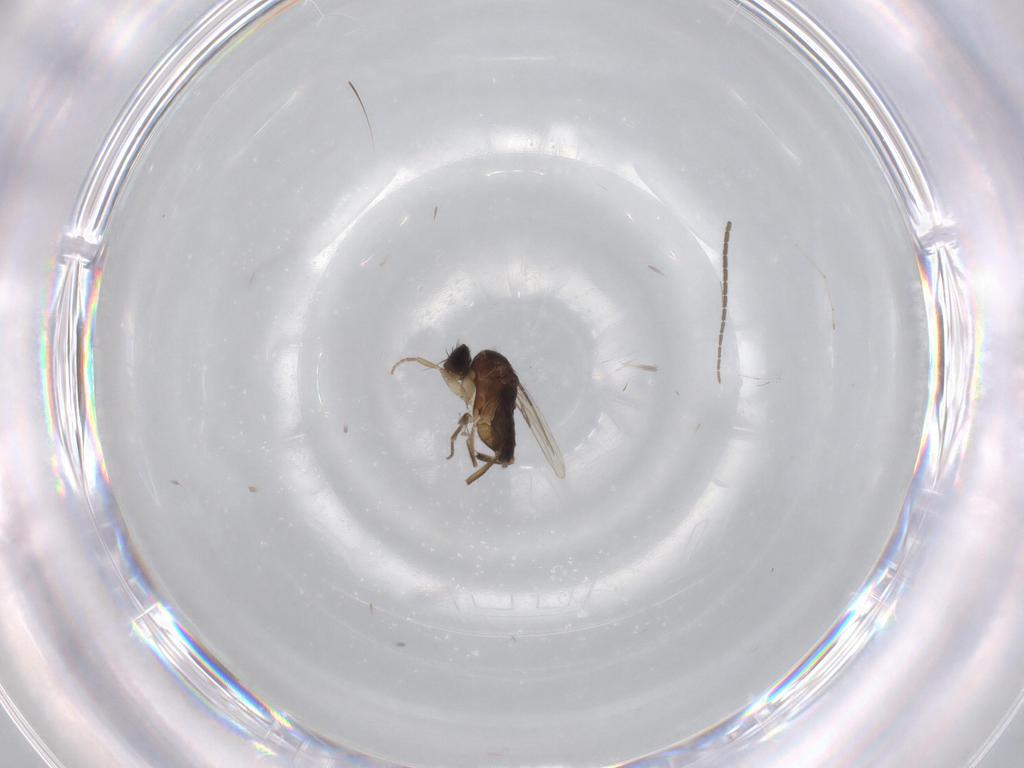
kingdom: Animalia
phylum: Arthropoda
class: Insecta
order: Diptera
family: Phoridae
